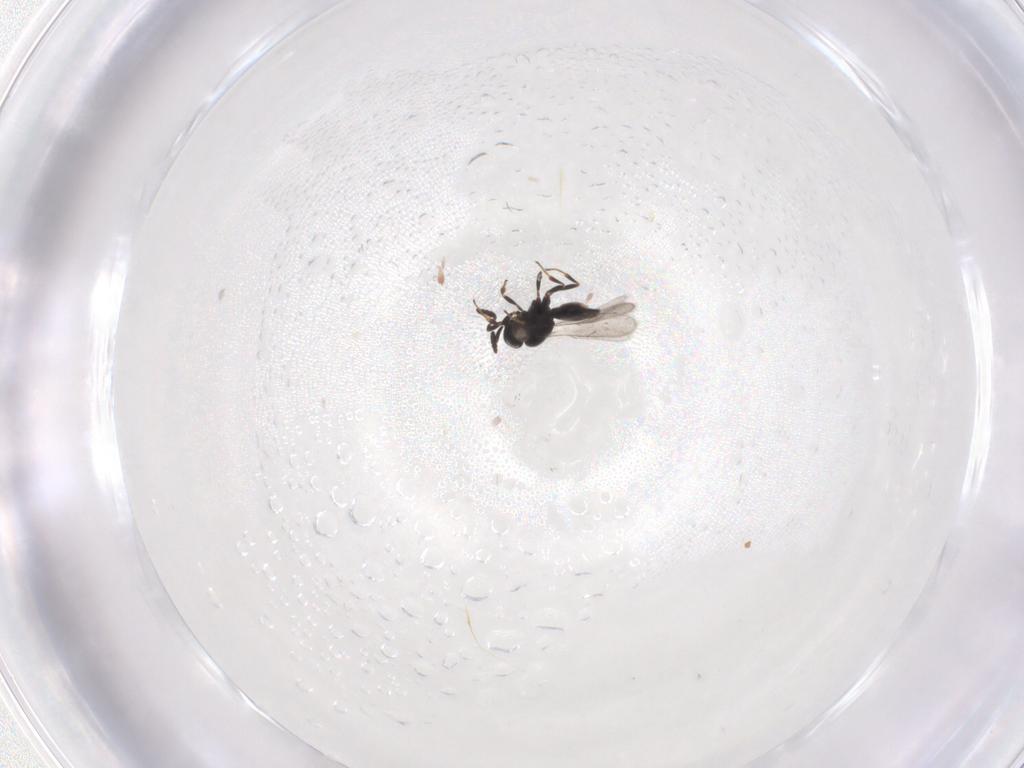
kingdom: Animalia
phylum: Arthropoda
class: Insecta
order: Hymenoptera
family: Scelionidae
